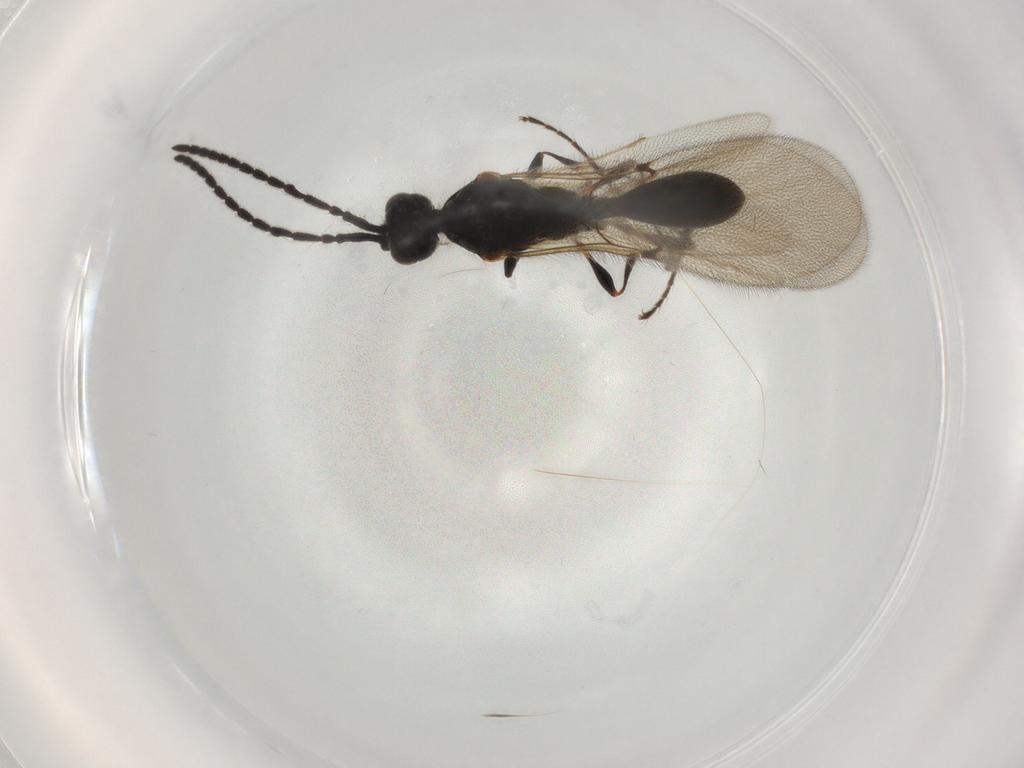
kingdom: Animalia
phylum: Arthropoda
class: Insecta
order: Hymenoptera
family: Diapriidae
